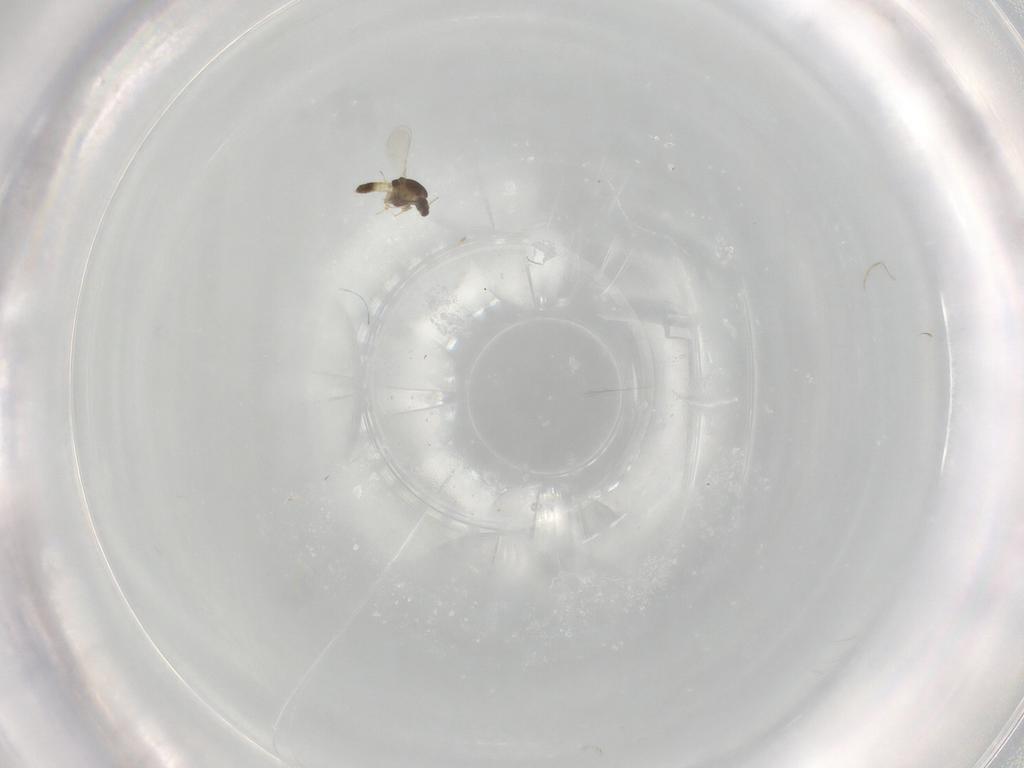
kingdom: Animalia
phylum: Arthropoda
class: Insecta
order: Diptera
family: Chironomidae
